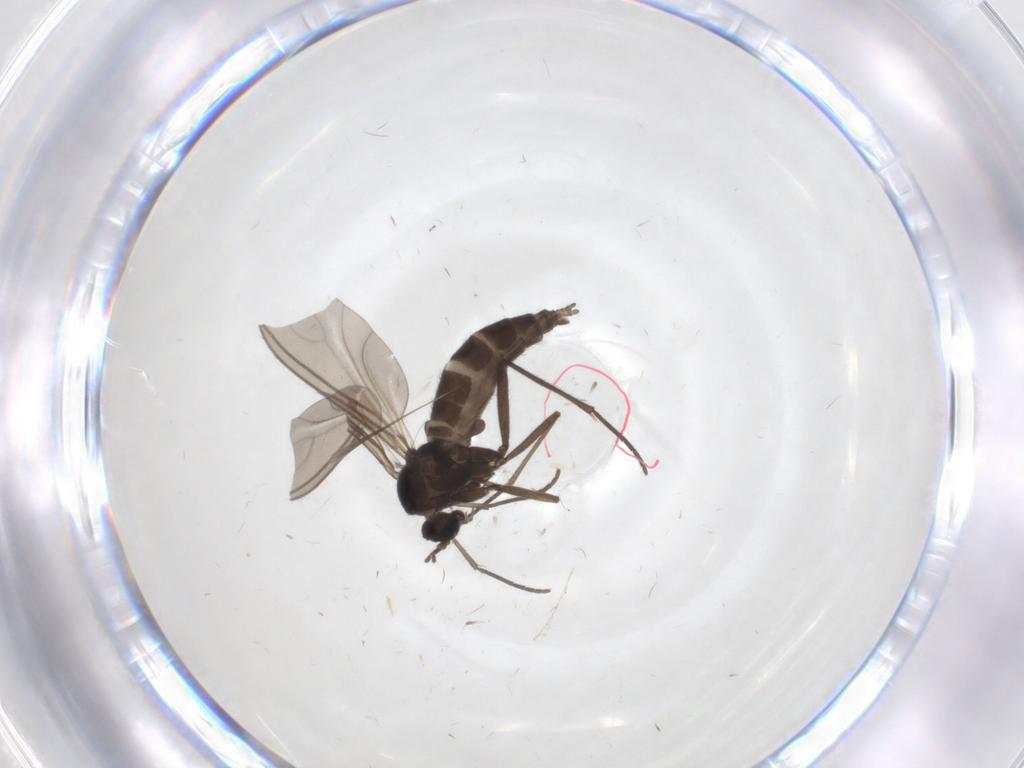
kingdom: Animalia
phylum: Arthropoda
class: Insecta
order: Diptera
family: Sciaridae
